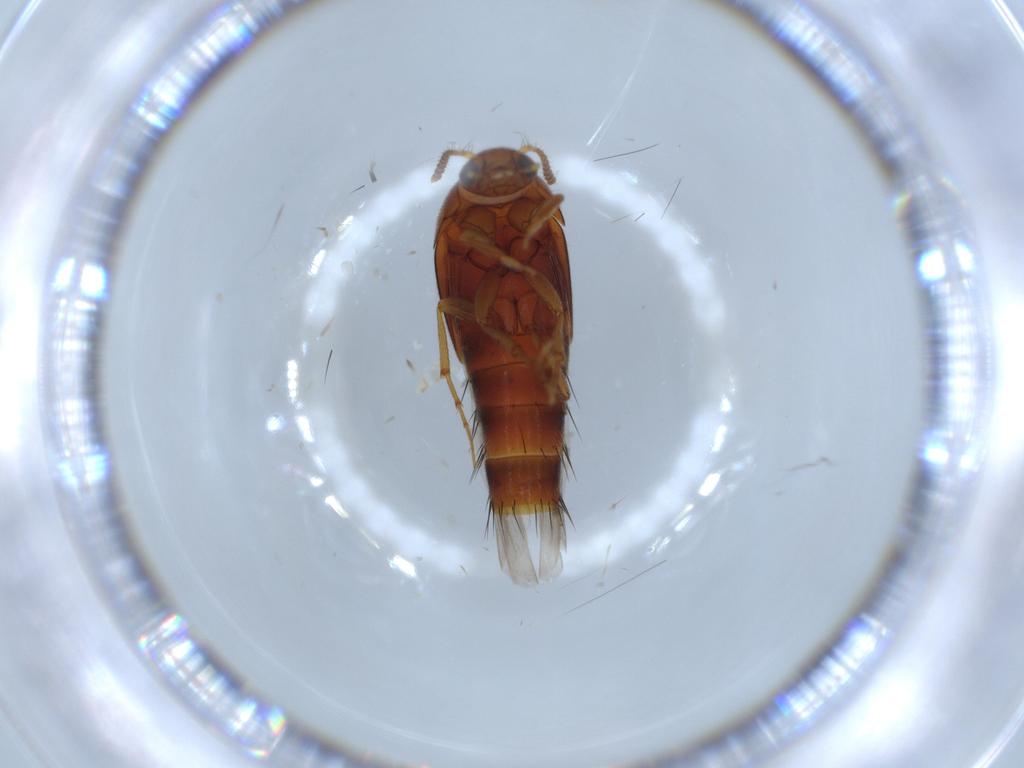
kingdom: Animalia
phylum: Arthropoda
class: Insecta
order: Coleoptera
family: Staphylinidae
